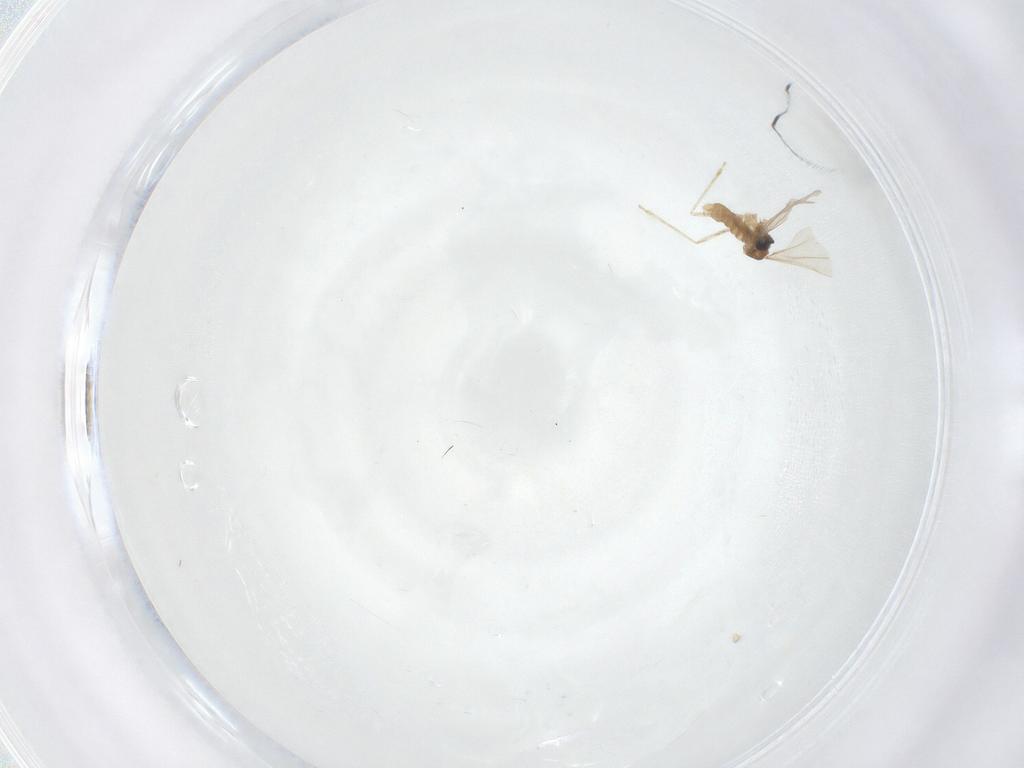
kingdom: Animalia
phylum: Arthropoda
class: Insecta
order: Diptera
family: Cecidomyiidae
